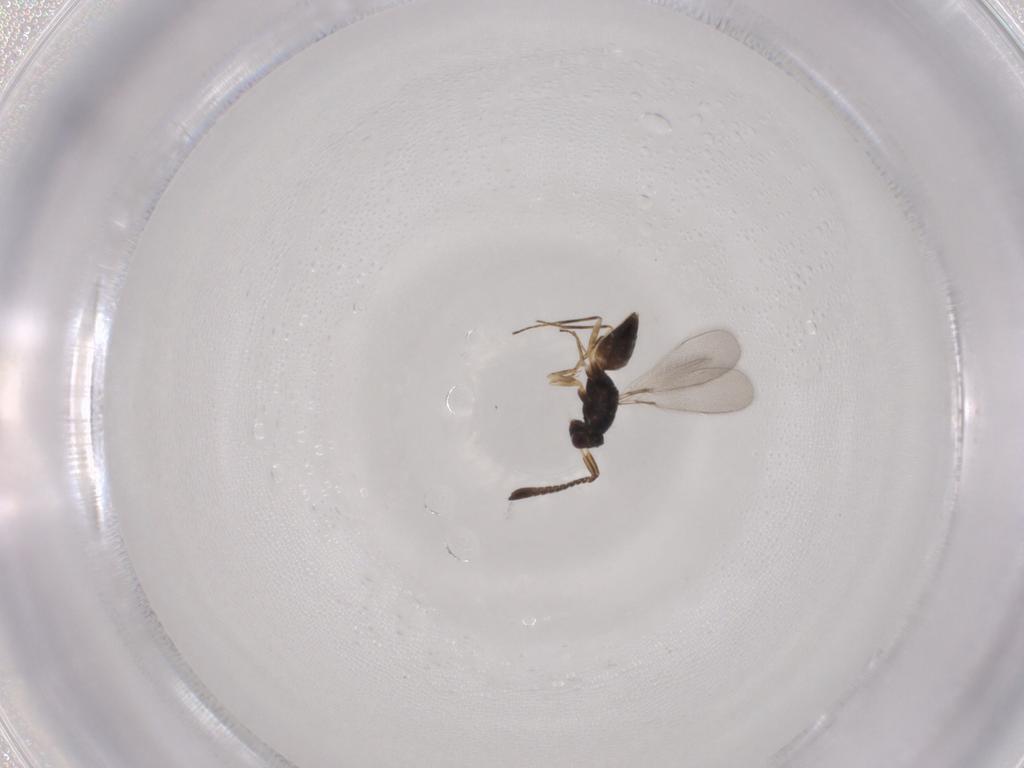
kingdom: Animalia
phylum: Arthropoda
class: Insecta
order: Hymenoptera
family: Mymaridae
